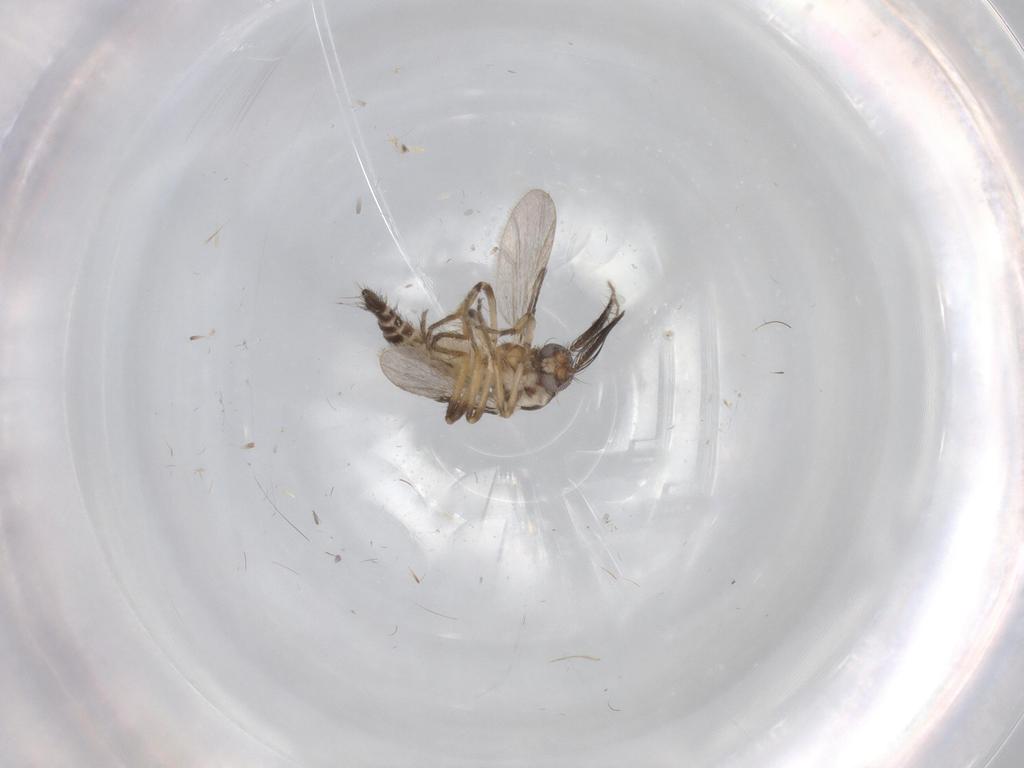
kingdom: Animalia
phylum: Arthropoda
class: Insecta
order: Diptera
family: Ceratopogonidae
